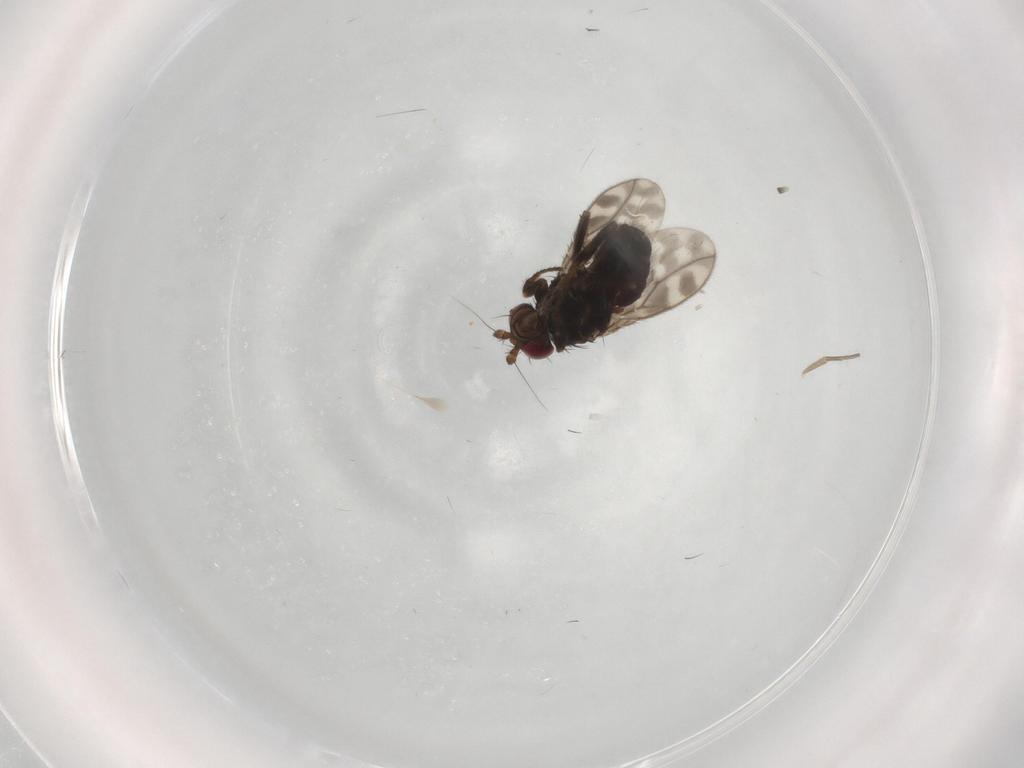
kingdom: Animalia
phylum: Arthropoda
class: Insecta
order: Diptera
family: Sphaeroceridae
